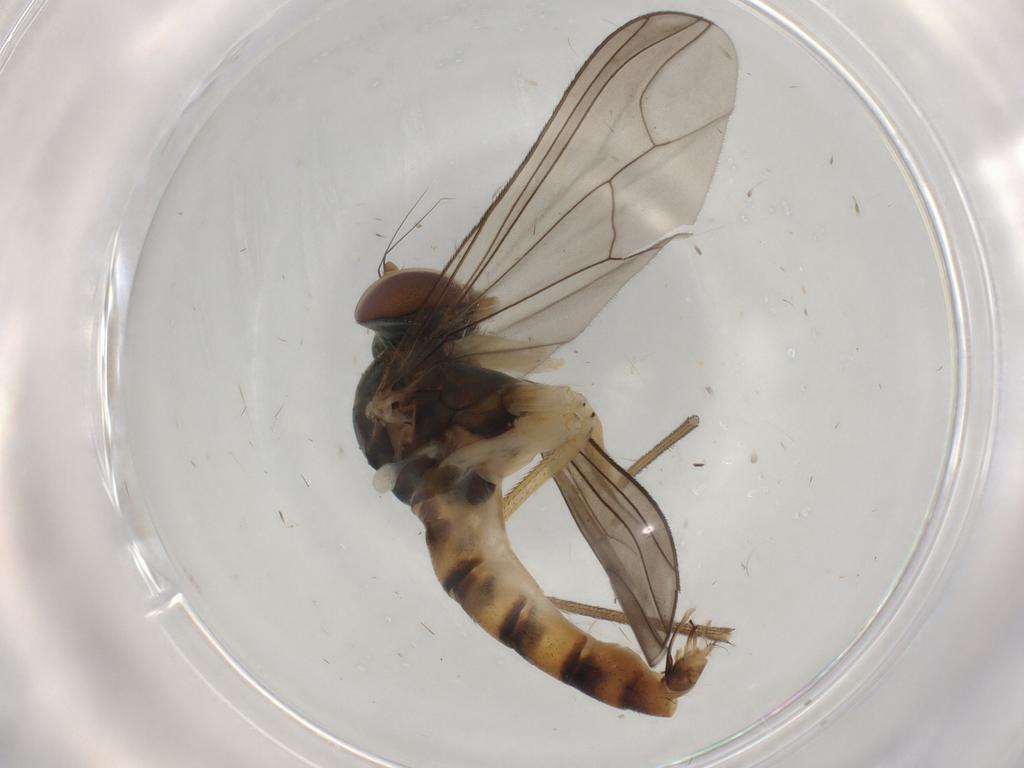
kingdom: Animalia
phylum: Arthropoda
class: Insecta
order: Diptera
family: Dolichopodidae
